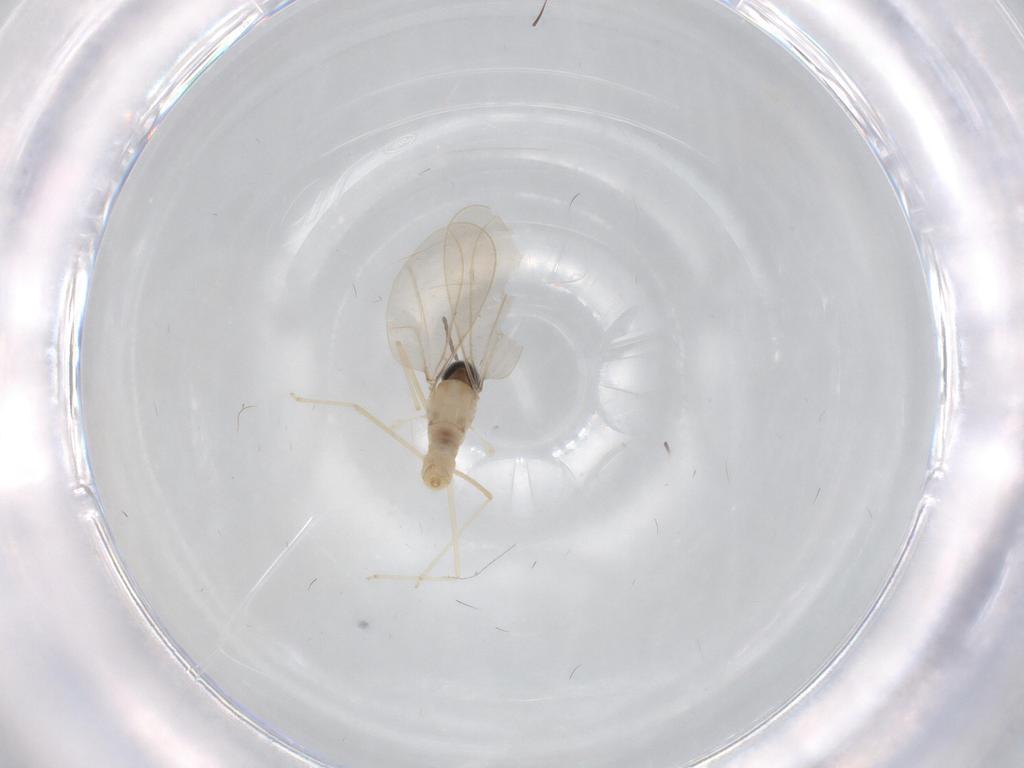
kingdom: Animalia
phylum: Arthropoda
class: Insecta
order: Diptera
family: Cecidomyiidae
